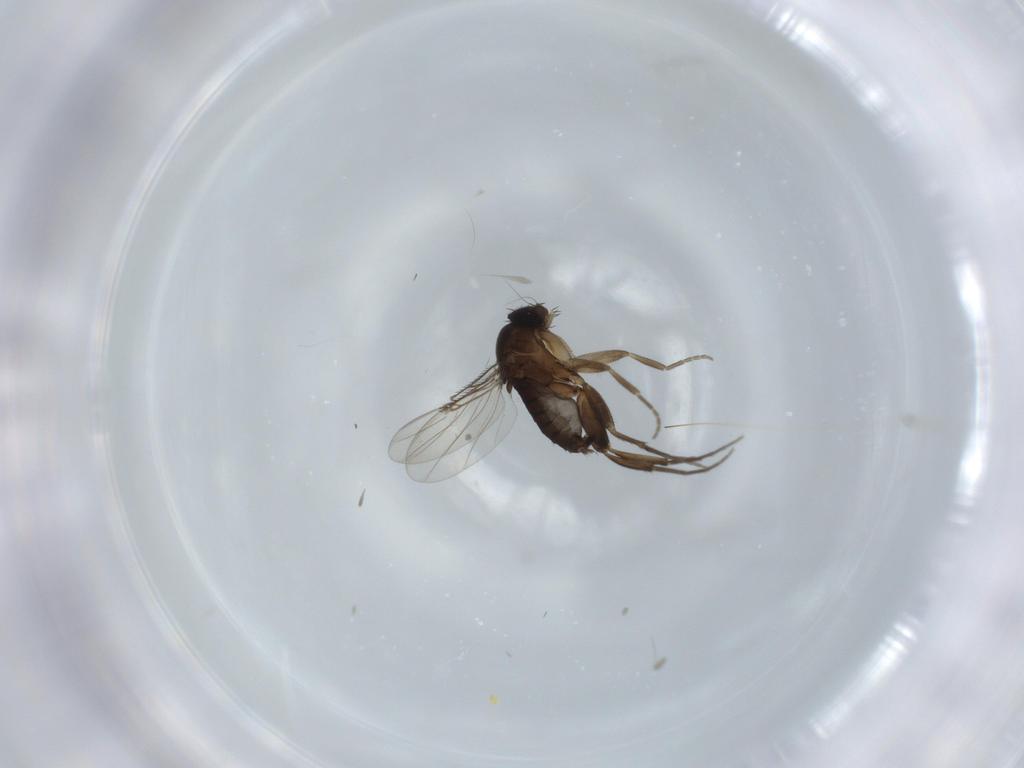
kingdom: Animalia
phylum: Arthropoda
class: Insecta
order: Diptera
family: Phoridae
